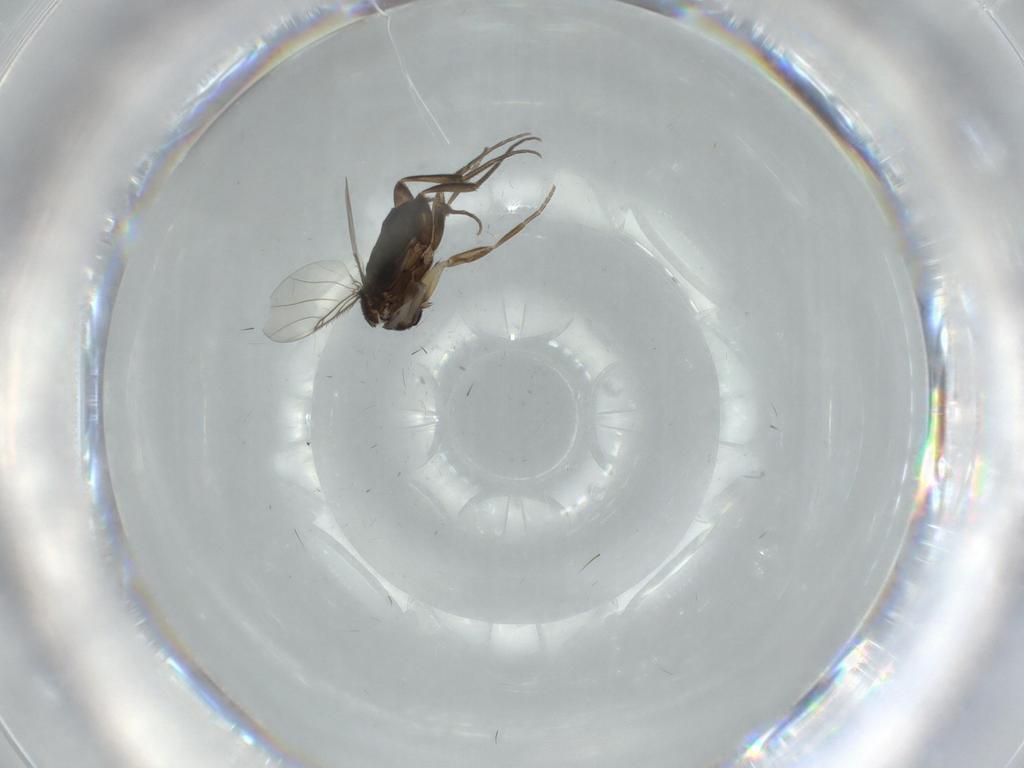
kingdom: Animalia
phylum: Arthropoda
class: Insecta
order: Diptera
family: Phoridae
